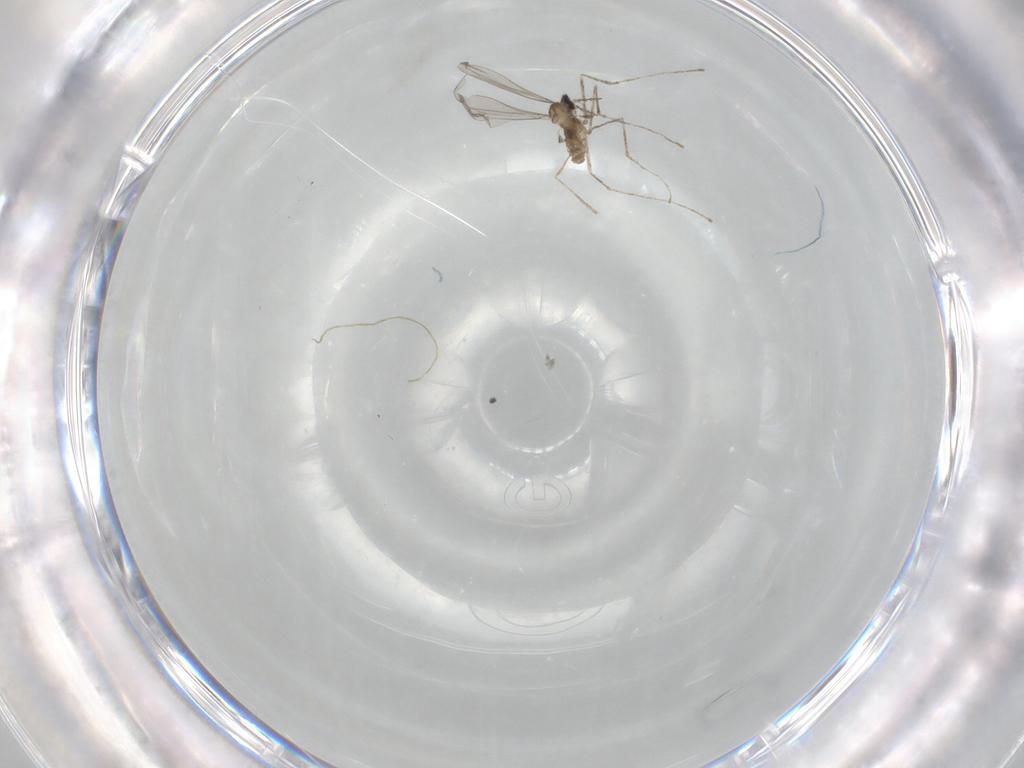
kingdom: Animalia
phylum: Arthropoda
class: Insecta
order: Diptera
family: Cecidomyiidae
